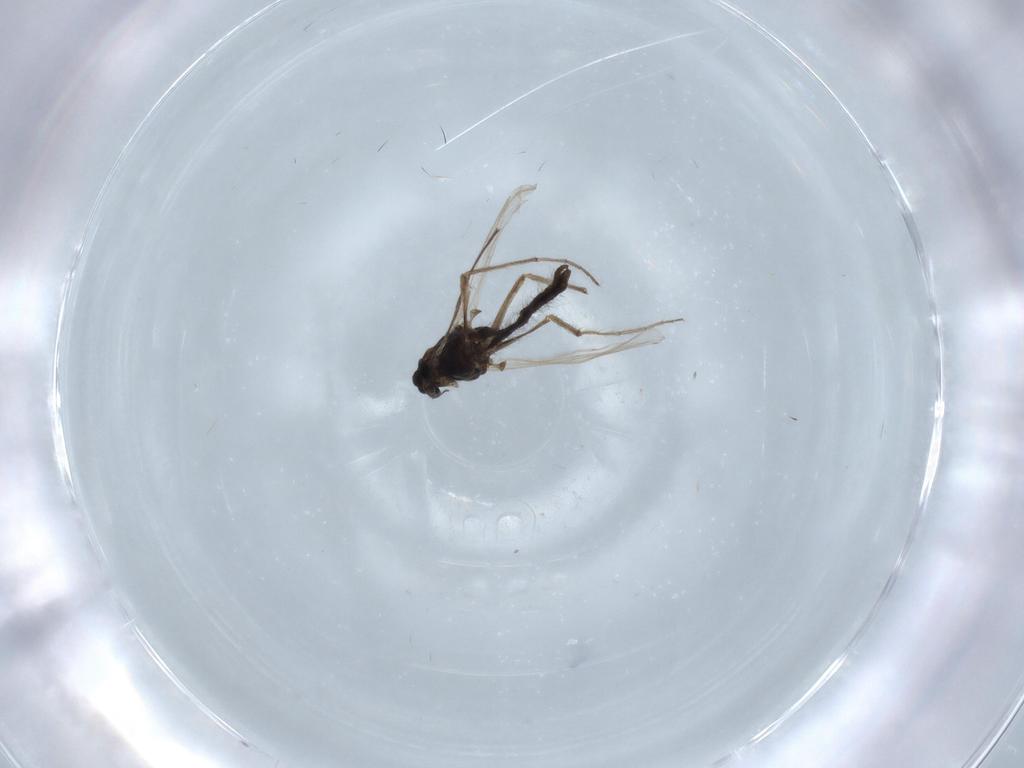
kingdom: Animalia
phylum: Arthropoda
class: Insecta
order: Diptera
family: Chironomidae
